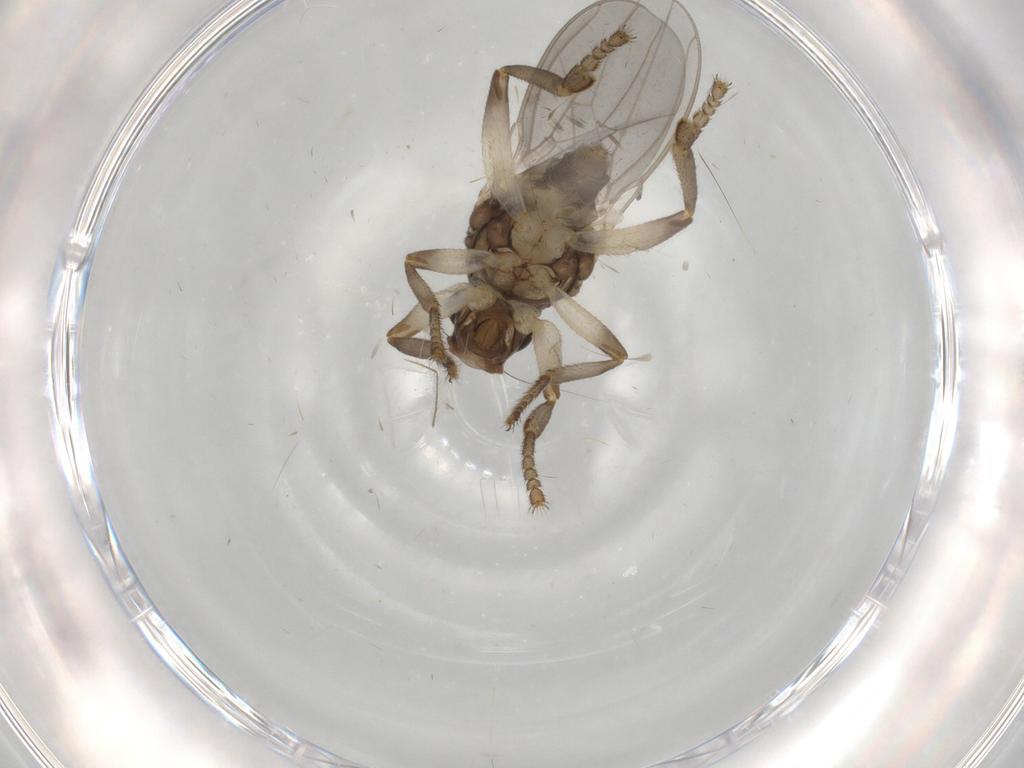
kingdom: Animalia
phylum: Arthropoda
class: Insecta
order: Diptera
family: Sphaeroceridae
